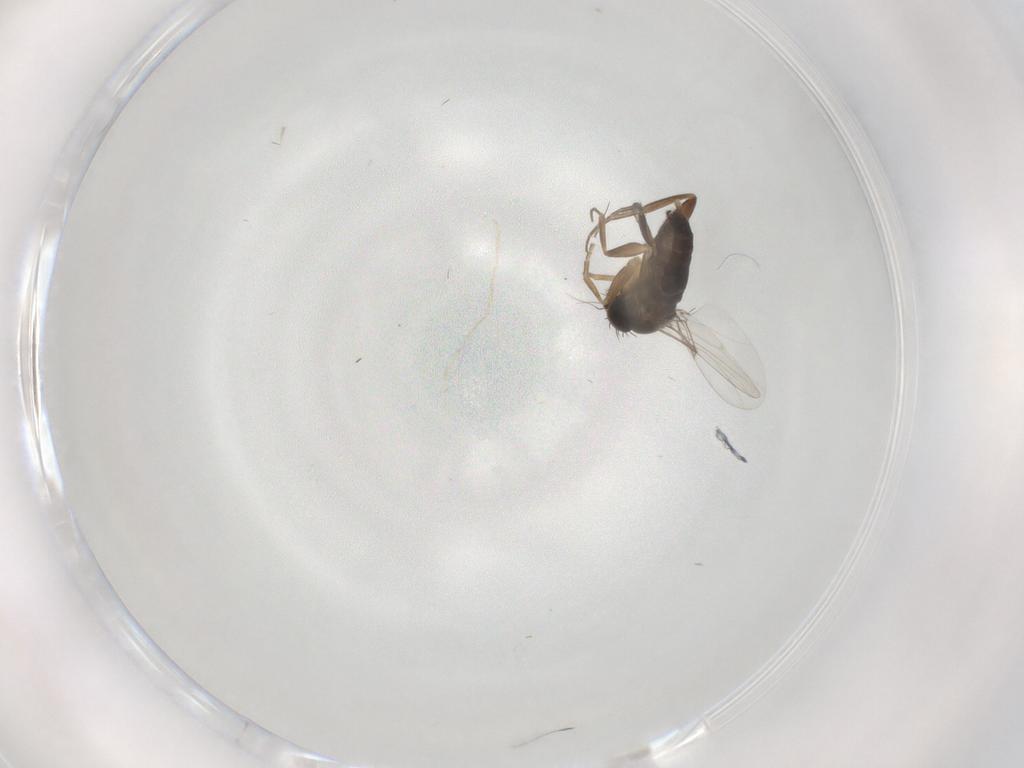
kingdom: Animalia
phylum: Arthropoda
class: Insecta
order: Diptera
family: Phoridae
